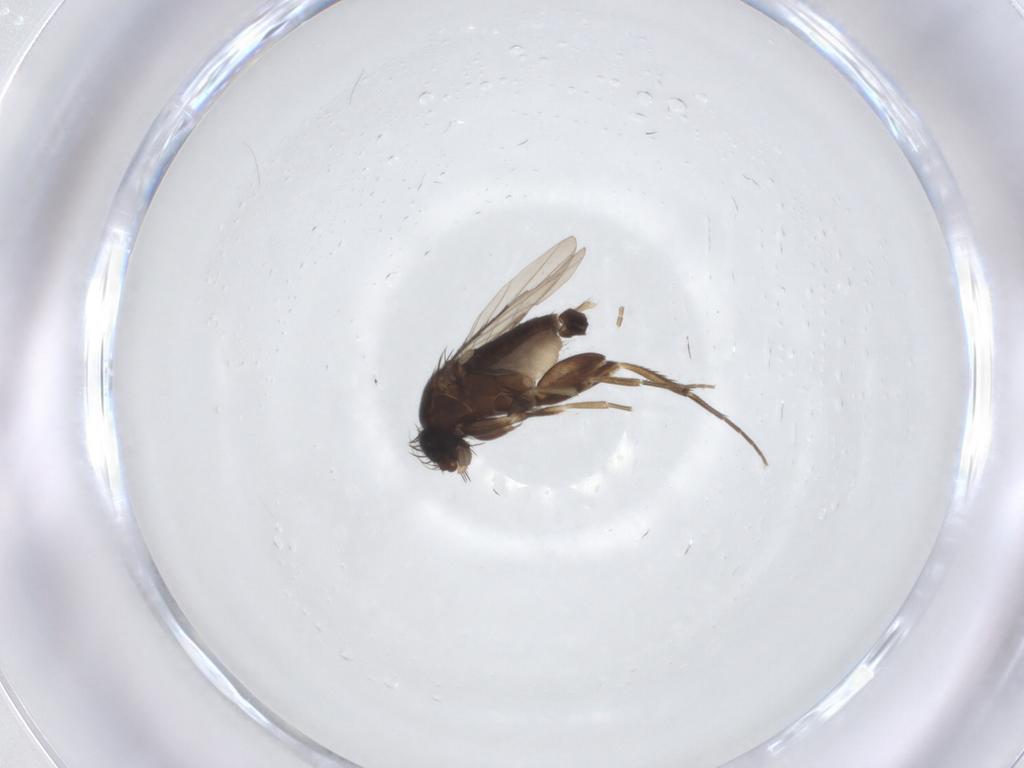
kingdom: Animalia
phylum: Arthropoda
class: Insecta
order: Diptera
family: Phoridae
